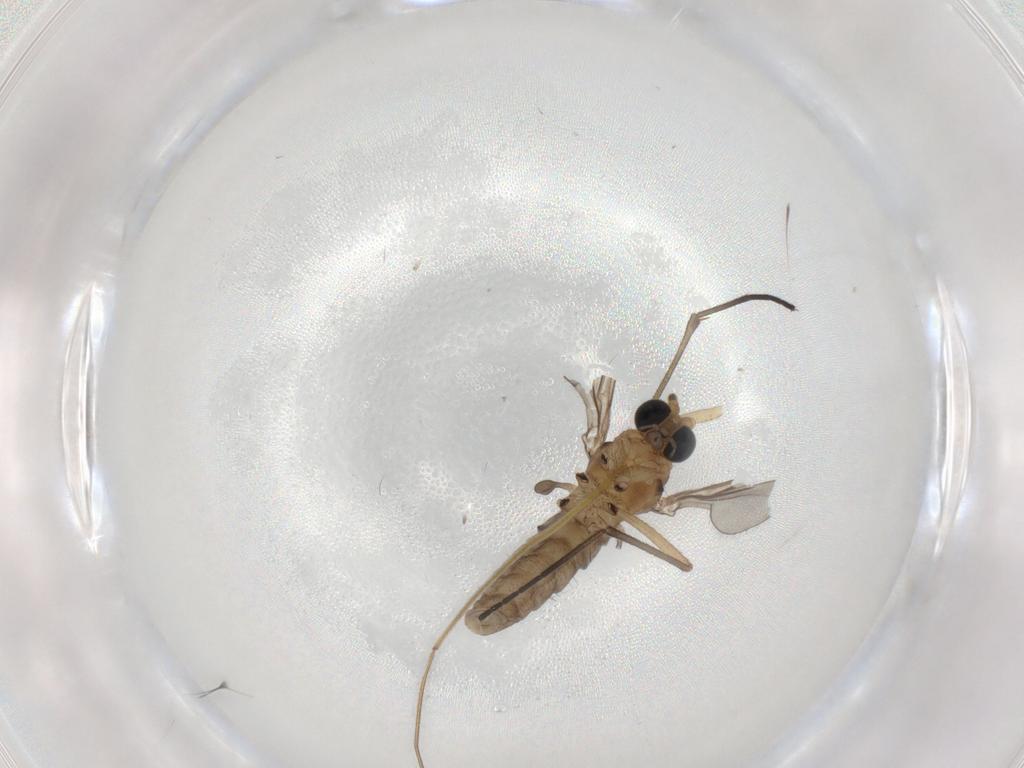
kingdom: Animalia
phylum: Arthropoda
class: Insecta
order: Diptera
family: Sciaridae
